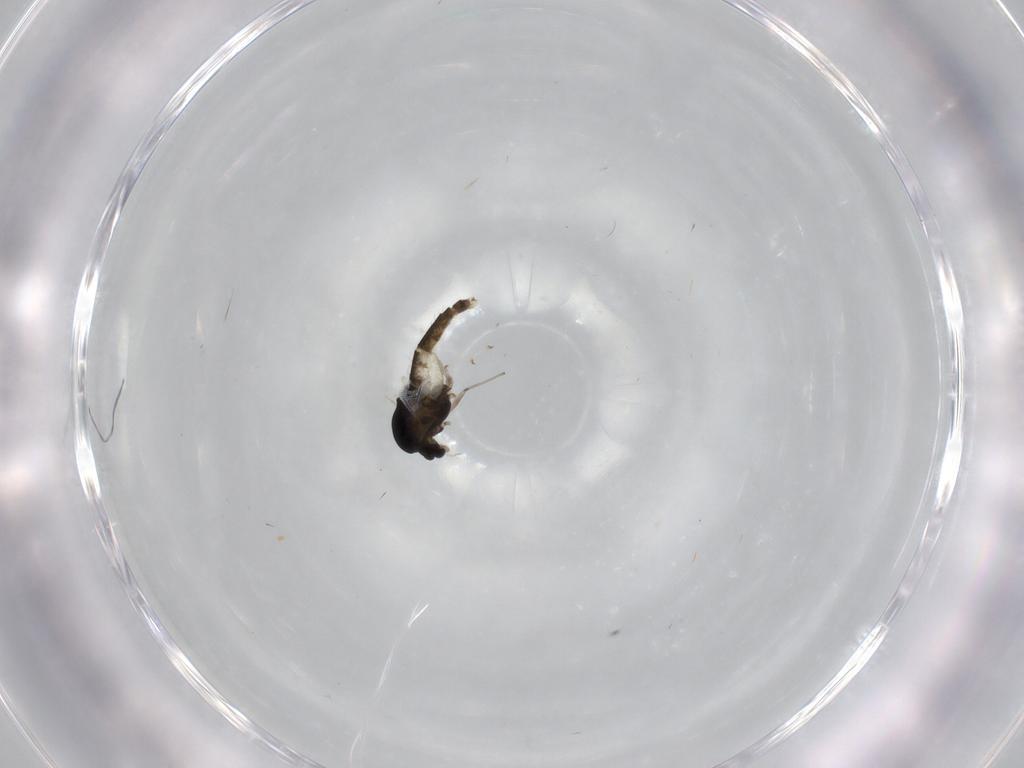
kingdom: Animalia
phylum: Arthropoda
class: Insecta
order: Diptera
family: Chironomidae
